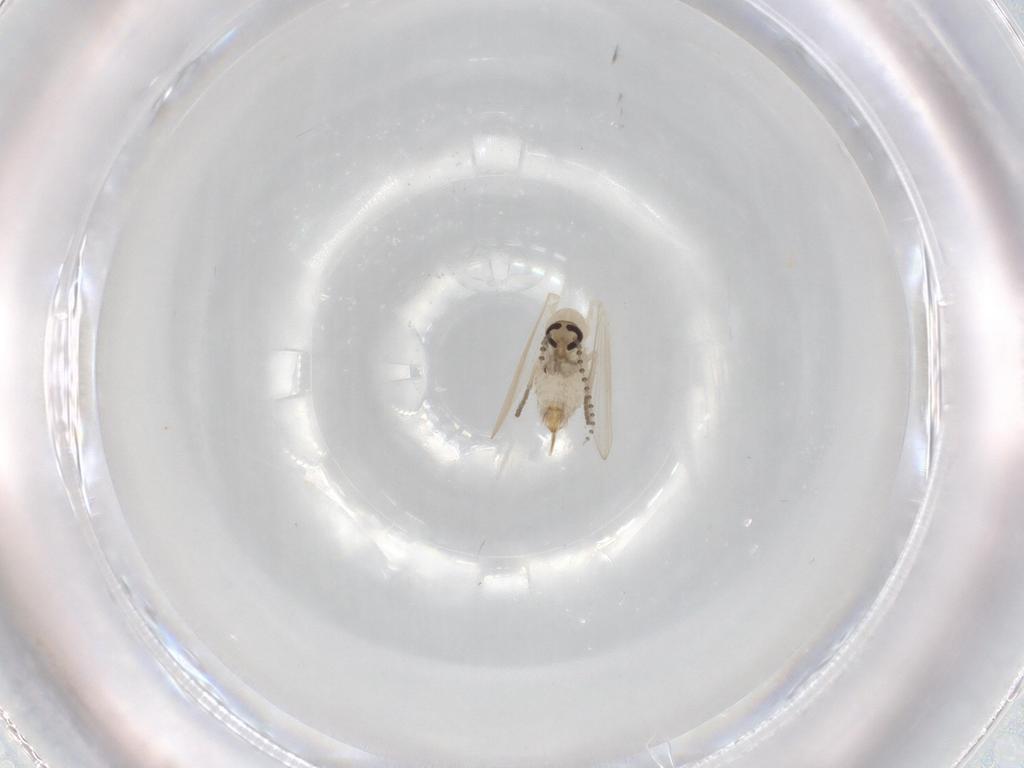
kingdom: Animalia
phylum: Arthropoda
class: Insecta
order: Diptera
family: Psychodidae
